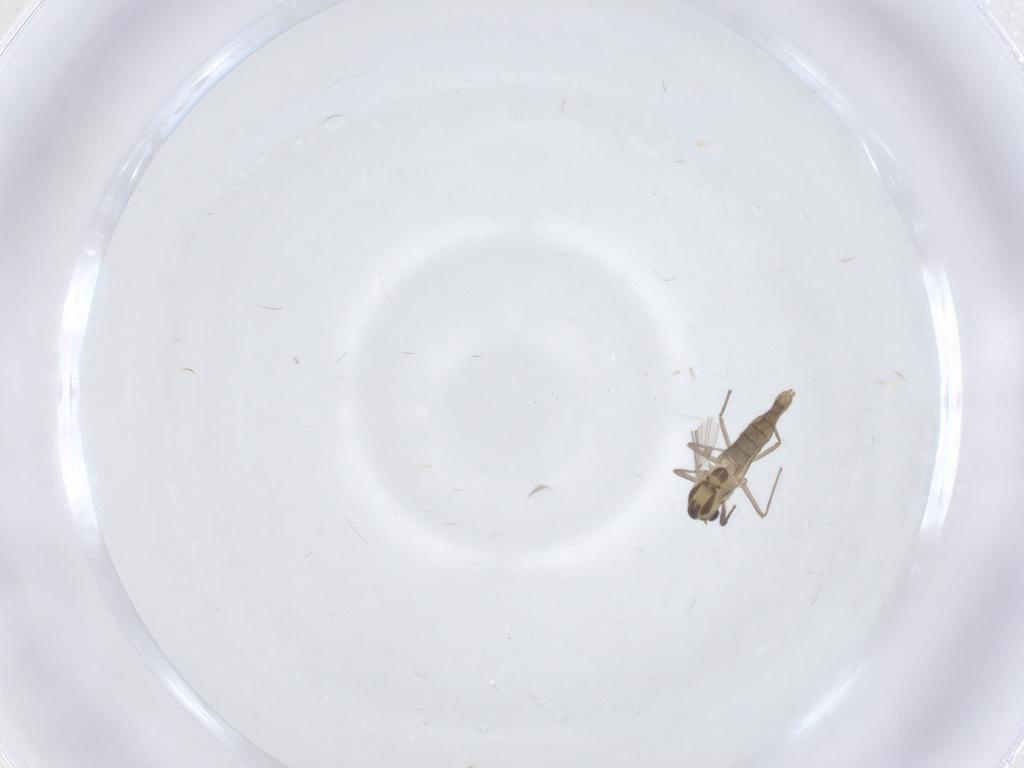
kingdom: Animalia
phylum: Arthropoda
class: Insecta
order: Diptera
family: Chironomidae
